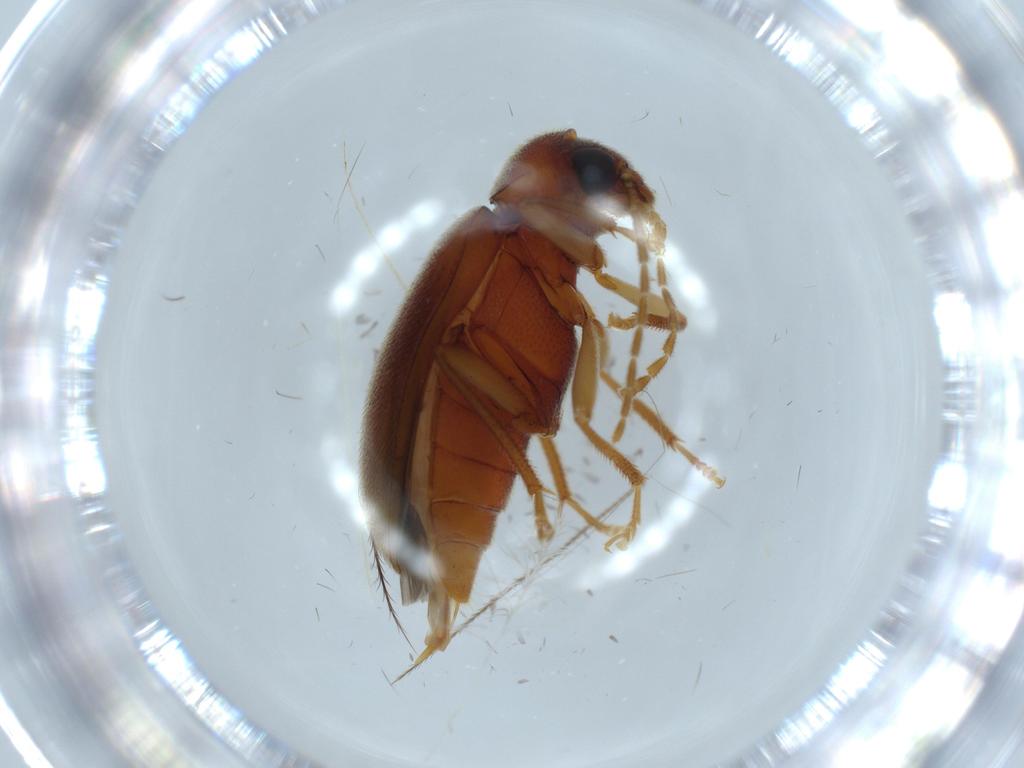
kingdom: Animalia
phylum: Arthropoda
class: Insecta
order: Coleoptera
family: Ptilodactylidae
